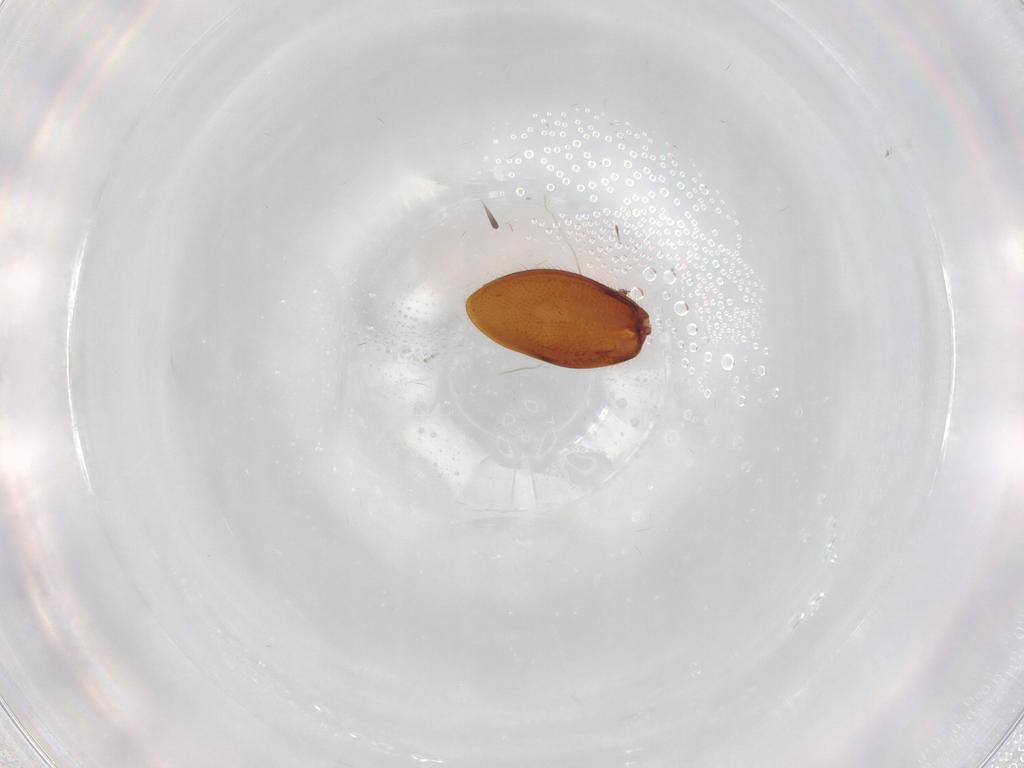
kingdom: Animalia
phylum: Arthropoda
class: Insecta
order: Coleoptera
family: Staphylinidae
